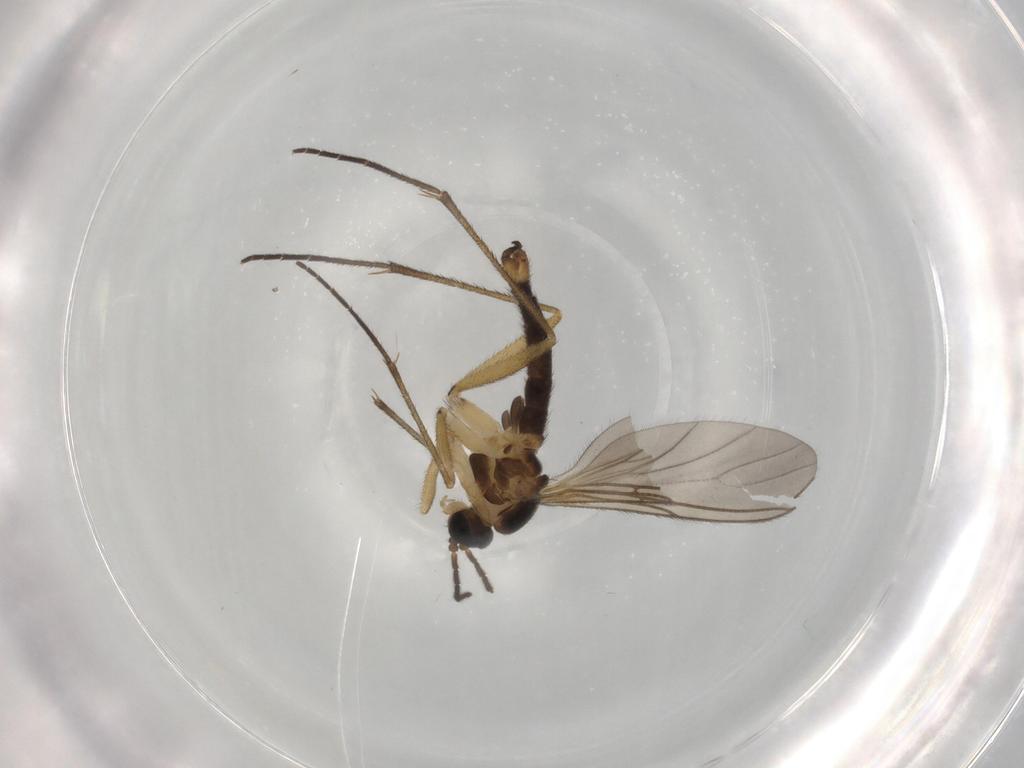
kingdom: Animalia
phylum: Arthropoda
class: Insecta
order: Diptera
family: Sciaridae
